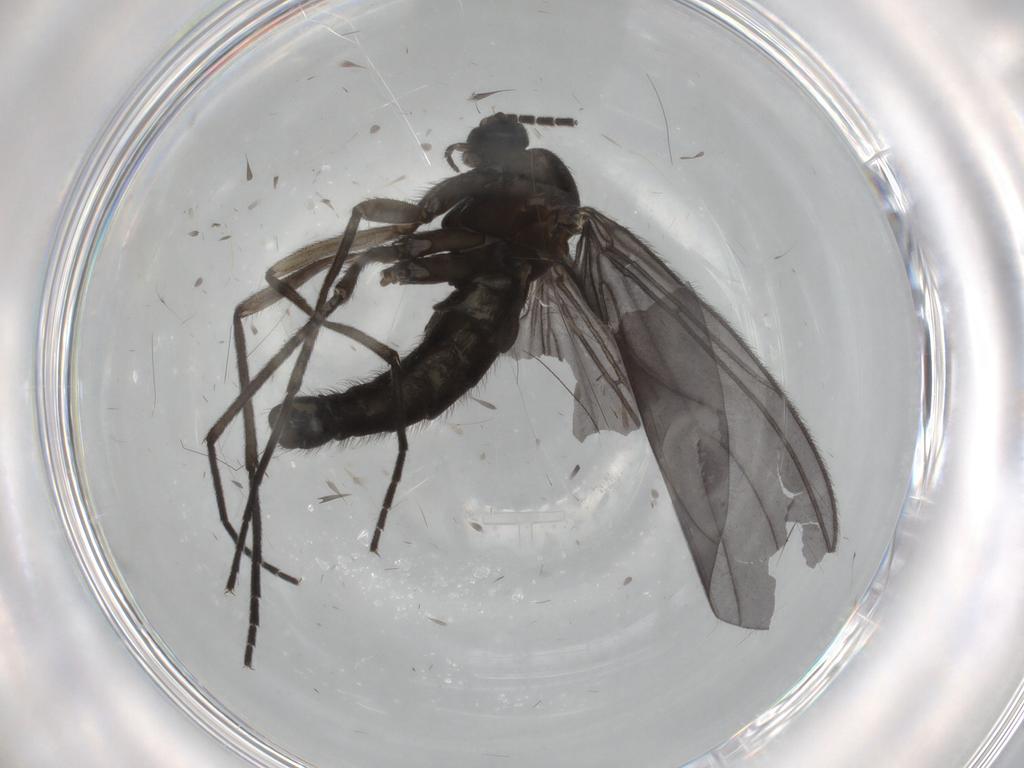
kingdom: Animalia
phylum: Arthropoda
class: Insecta
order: Diptera
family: Sciaridae
